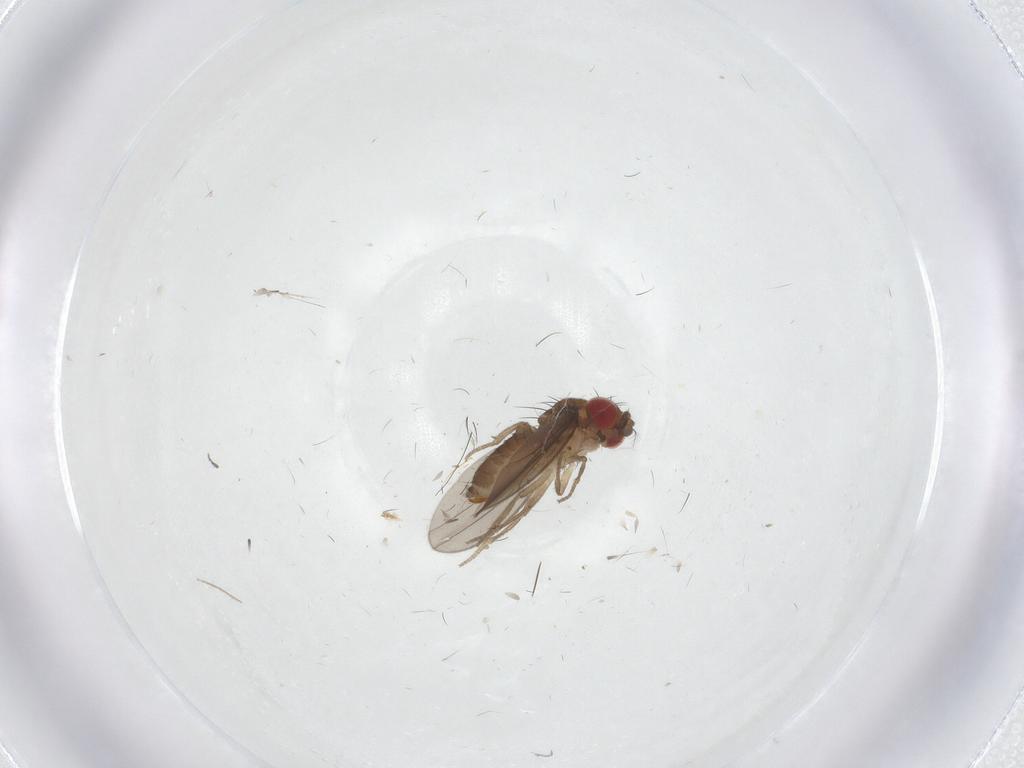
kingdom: Animalia
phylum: Arthropoda
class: Insecta
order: Diptera
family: Drosophilidae
